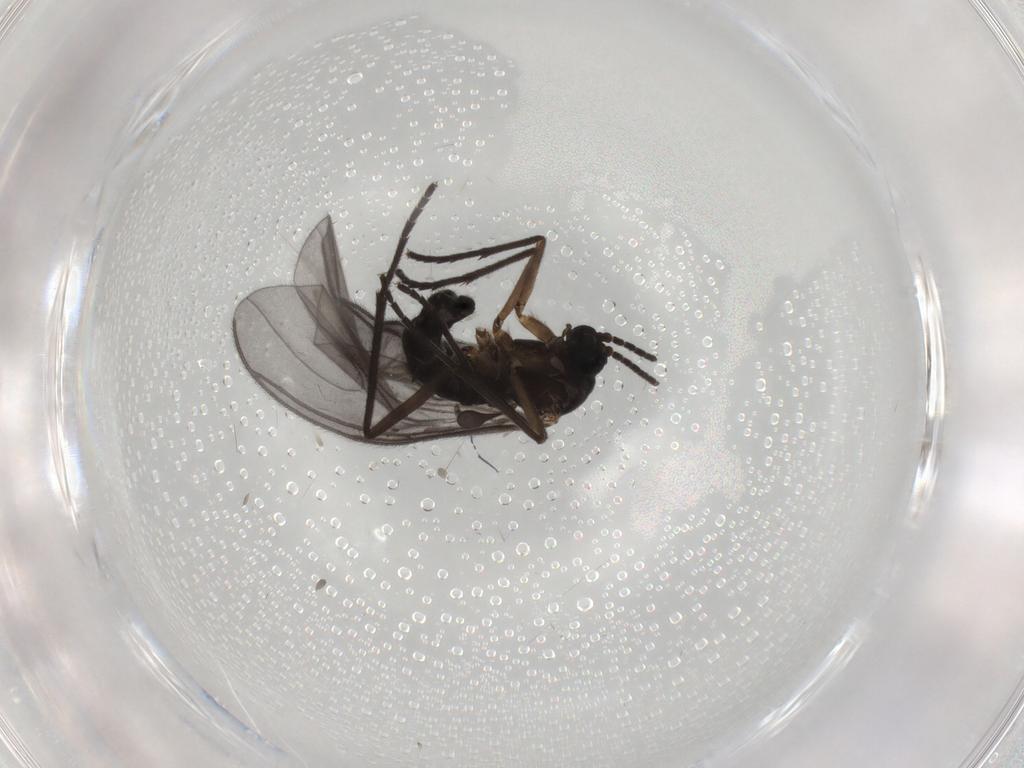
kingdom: Animalia
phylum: Arthropoda
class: Insecta
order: Diptera
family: Sciaridae
